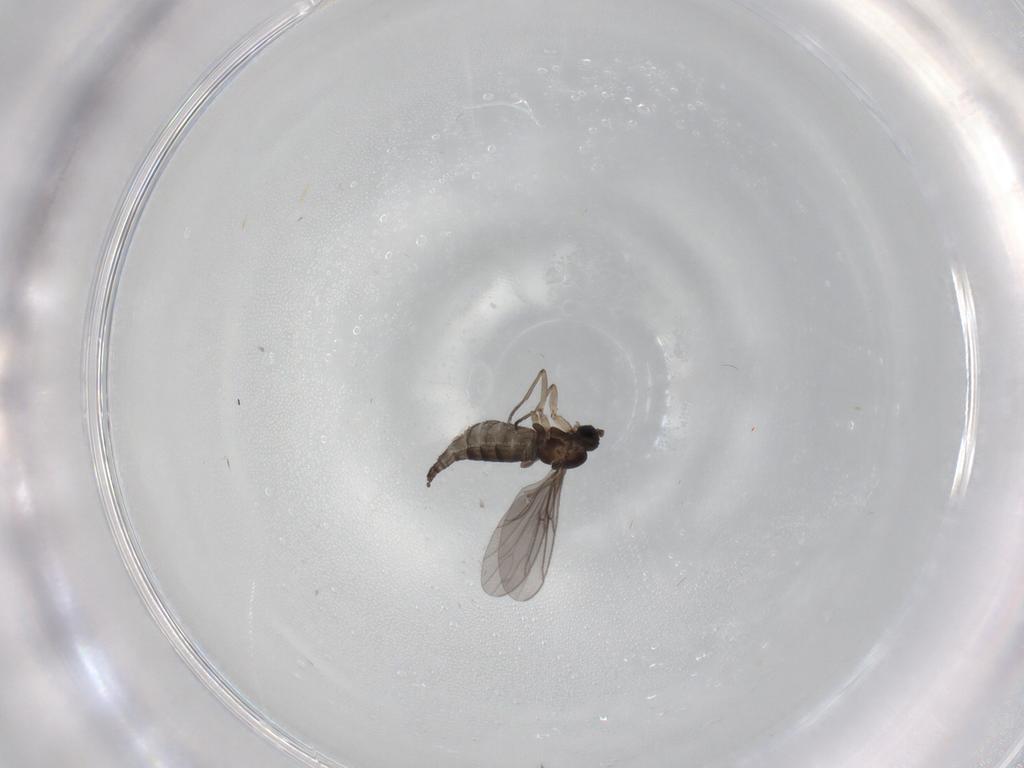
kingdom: Animalia
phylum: Arthropoda
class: Insecta
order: Diptera
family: Sciaridae
